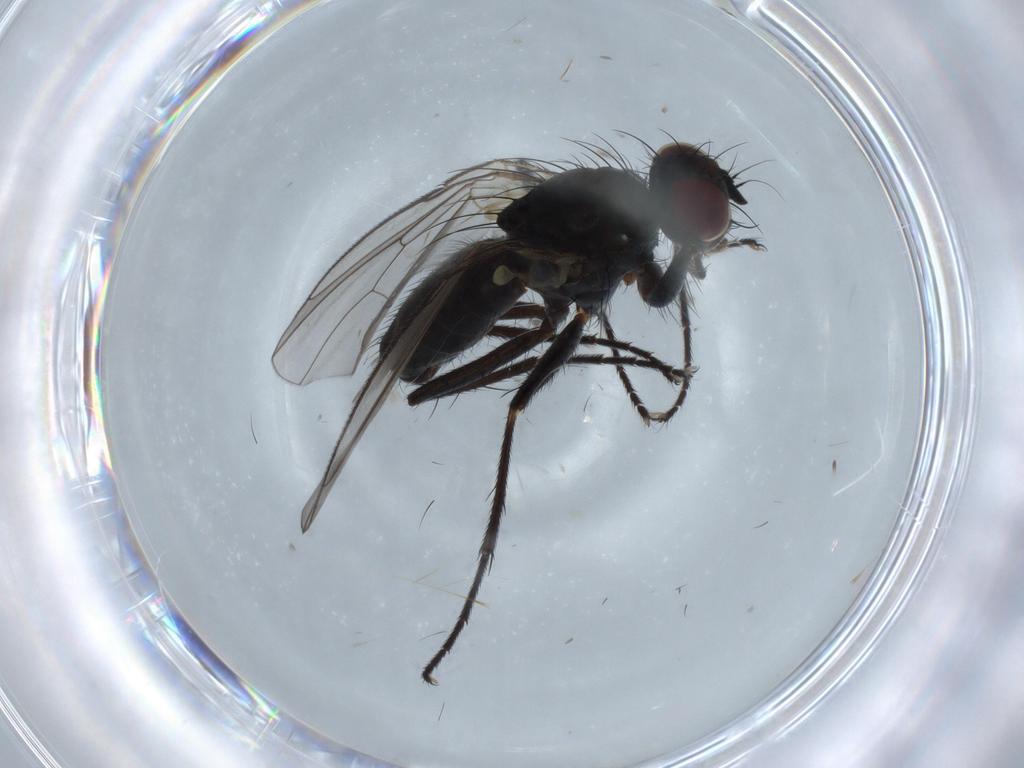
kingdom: Animalia
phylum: Arthropoda
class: Insecta
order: Diptera
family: Muscidae
